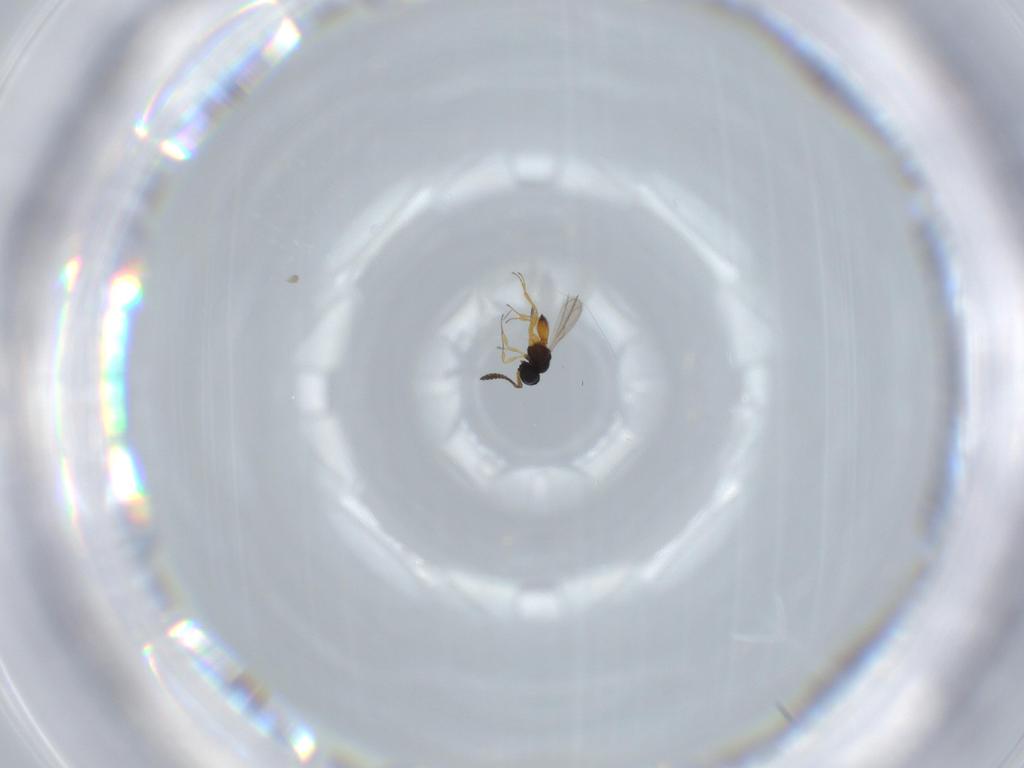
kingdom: Animalia
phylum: Arthropoda
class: Insecta
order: Hymenoptera
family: Scelionidae
